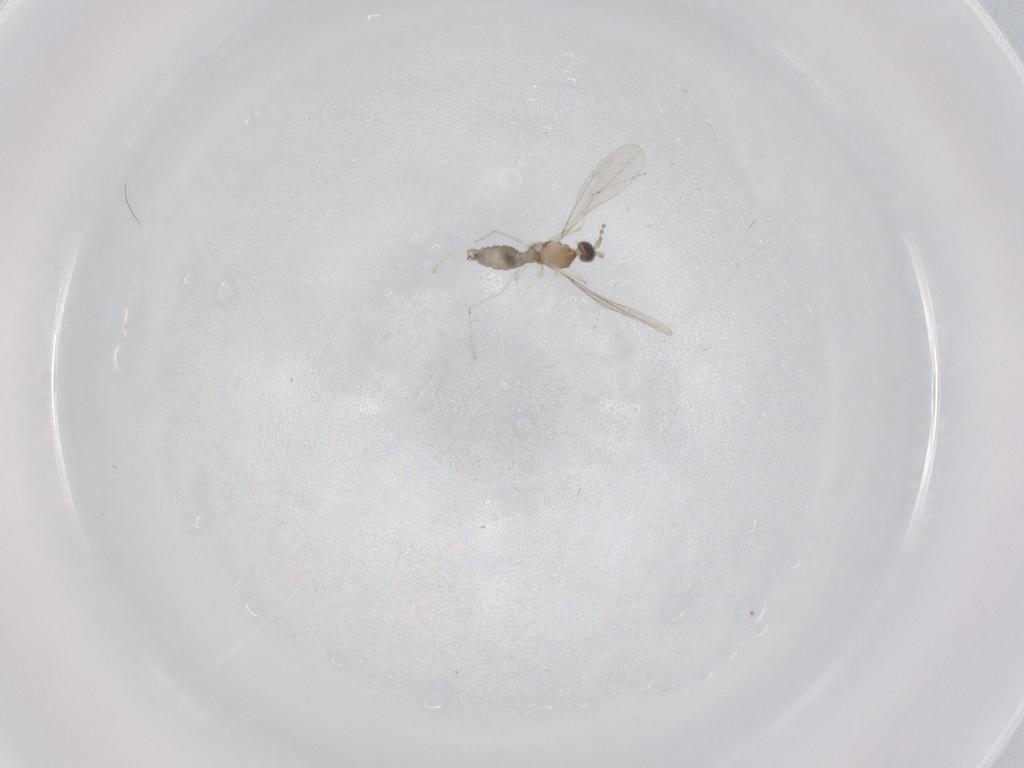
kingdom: Animalia
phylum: Arthropoda
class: Insecta
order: Diptera
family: Cecidomyiidae
